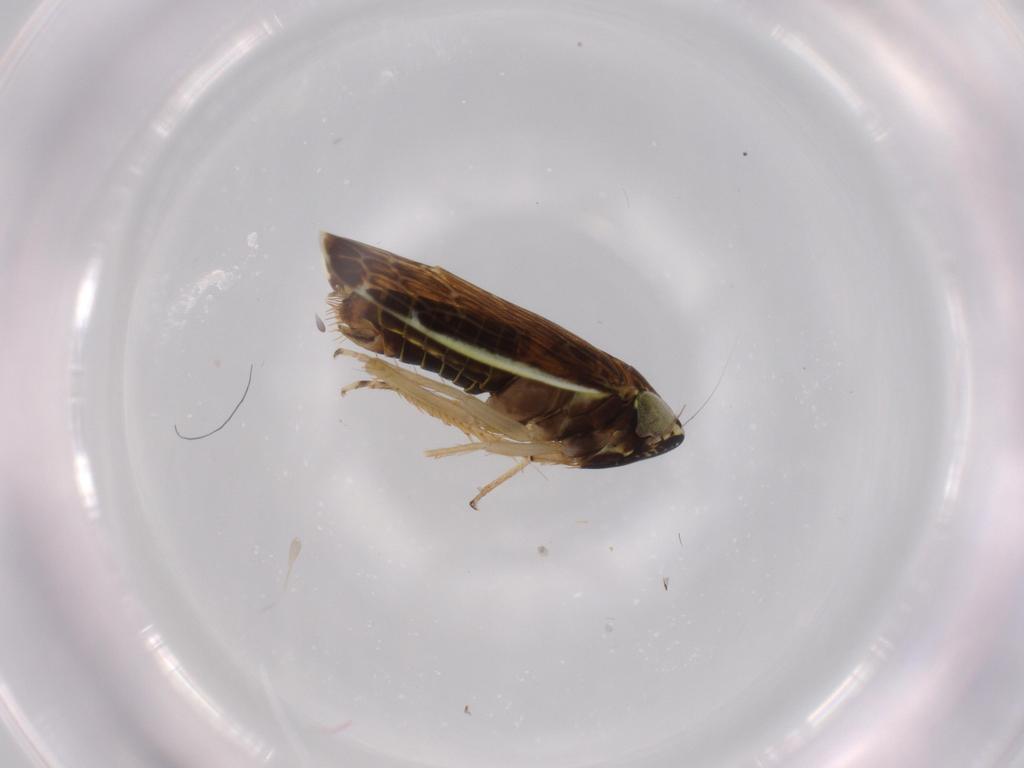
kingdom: Animalia
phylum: Arthropoda
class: Insecta
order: Hemiptera
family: Cicadellidae
